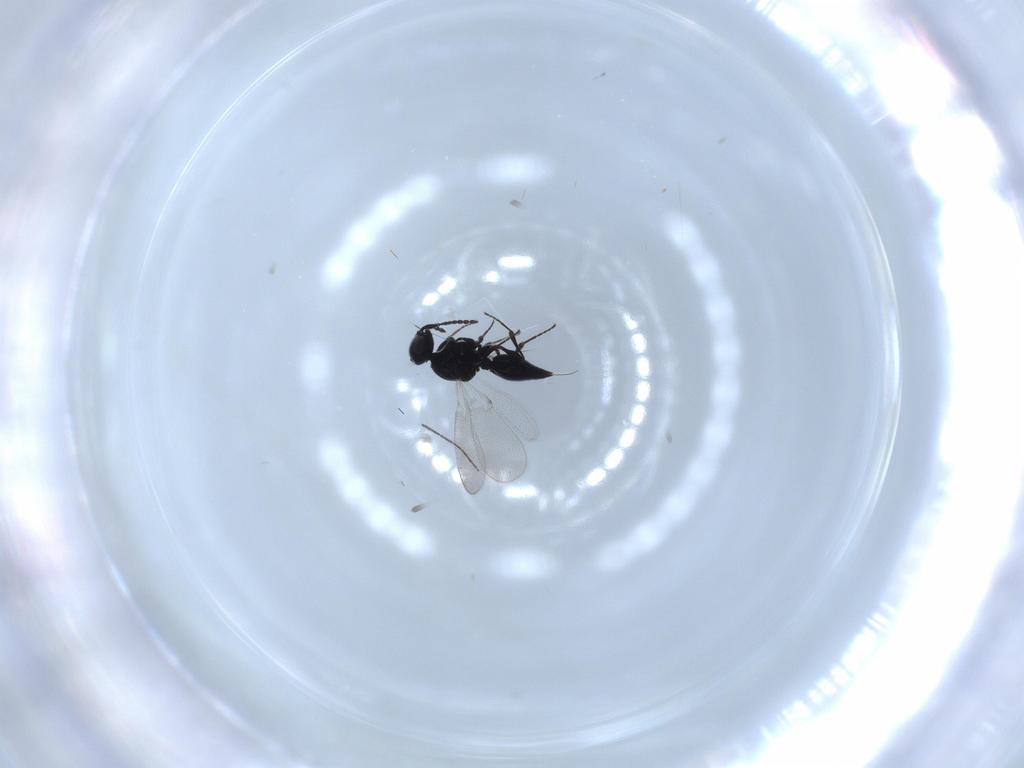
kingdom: Animalia
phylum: Arthropoda
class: Insecta
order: Hymenoptera
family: Platygastridae
